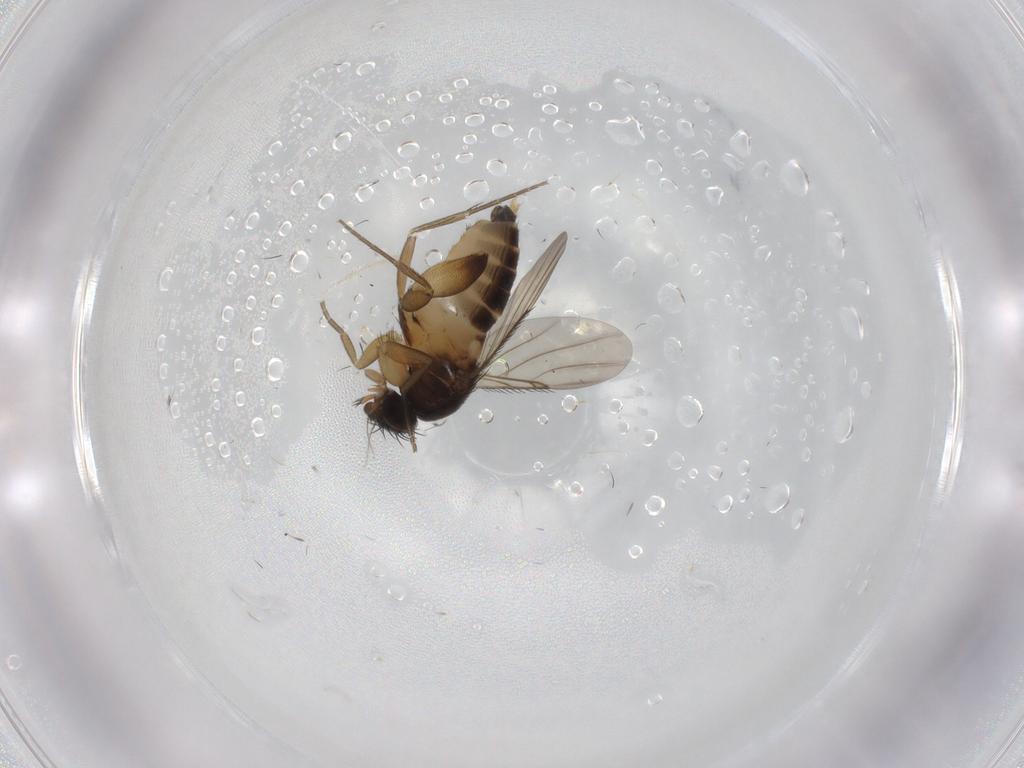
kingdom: Animalia
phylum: Arthropoda
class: Insecta
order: Diptera
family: Phoridae
